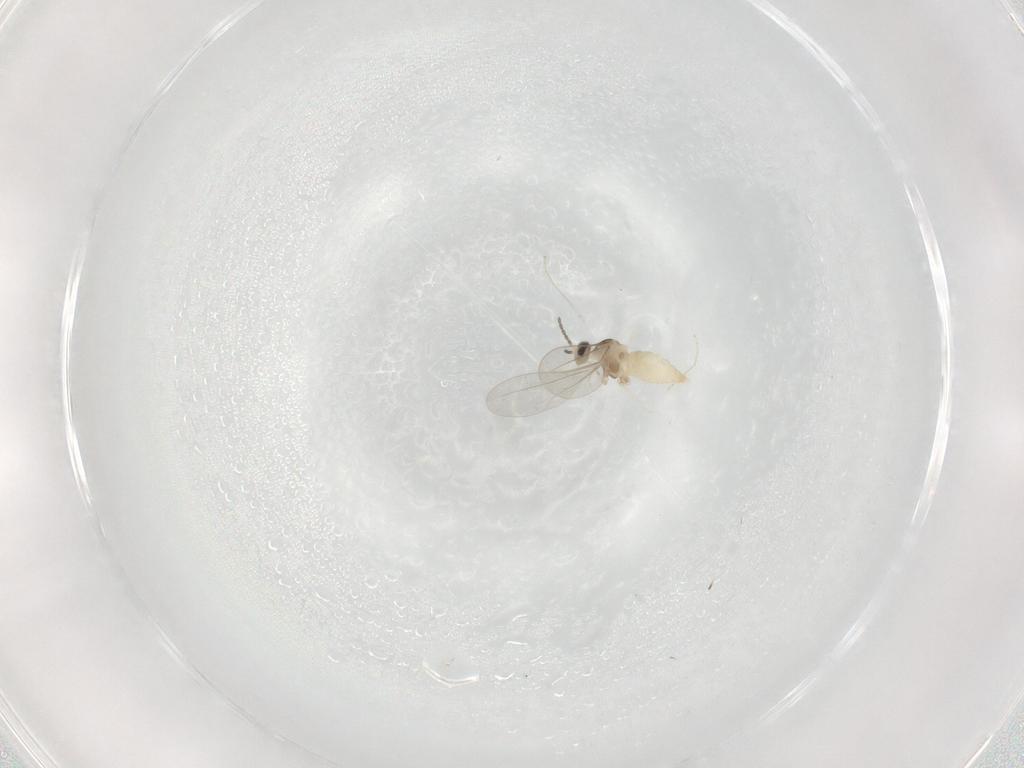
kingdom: Animalia
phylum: Arthropoda
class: Insecta
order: Diptera
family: Cecidomyiidae
